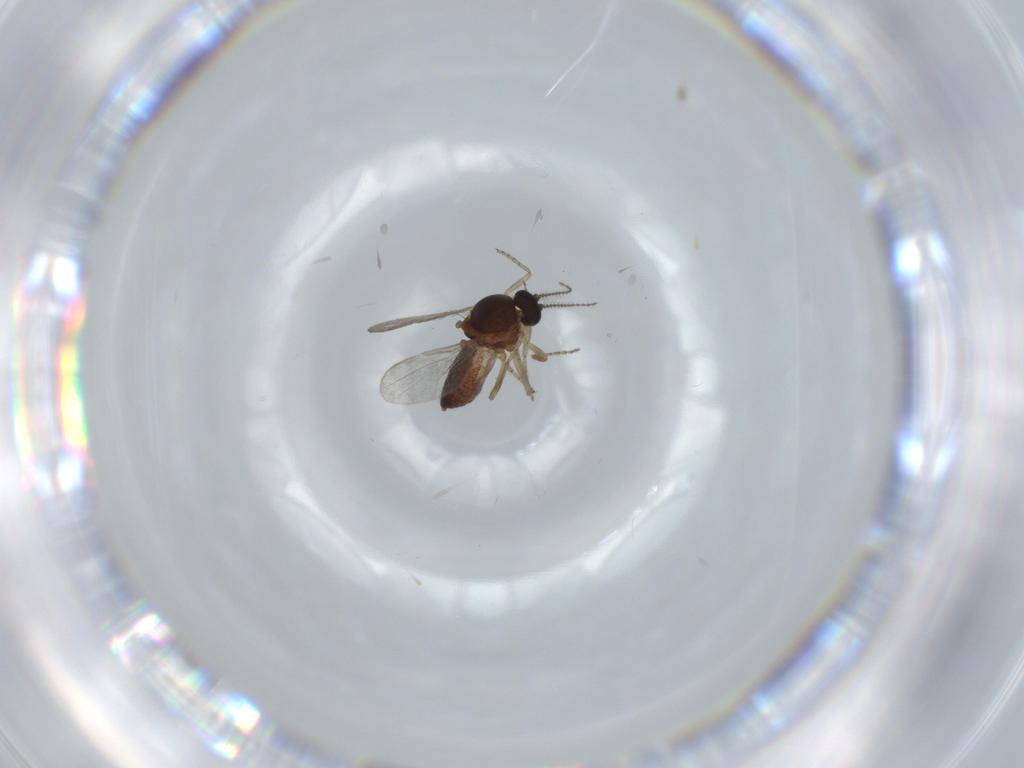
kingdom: Animalia
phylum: Arthropoda
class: Insecta
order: Diptera
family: Ceratopogonidae
